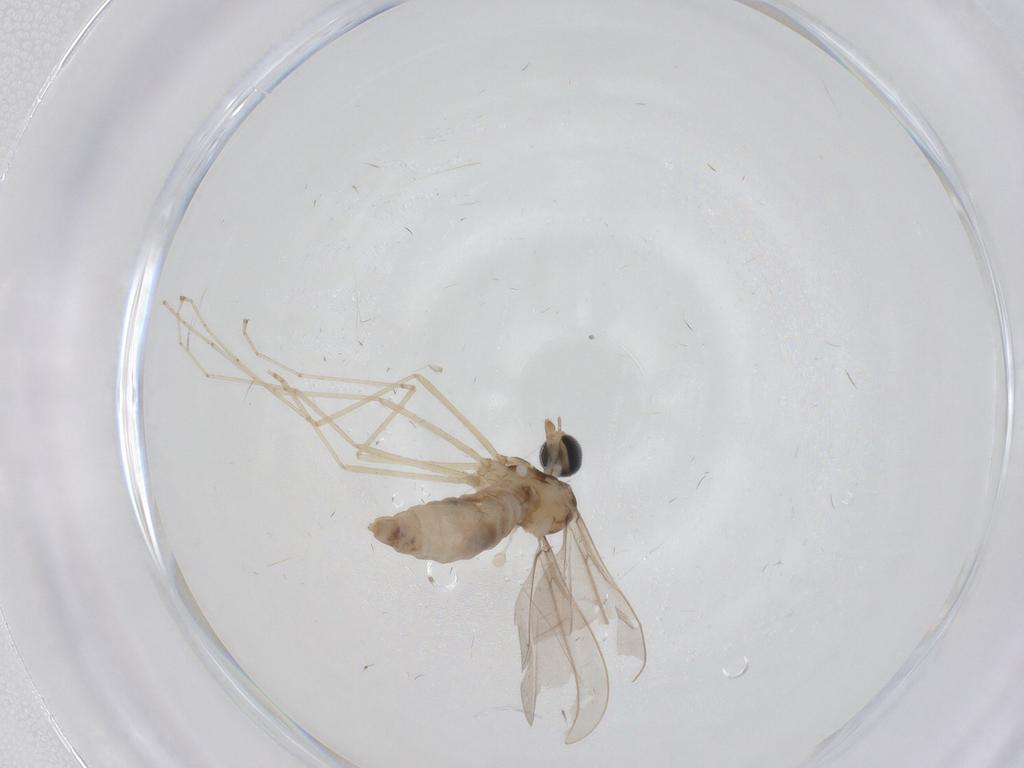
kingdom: Animalia
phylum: Arthropoda
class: Insecta
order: Diptera
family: Cecidomyiidae
